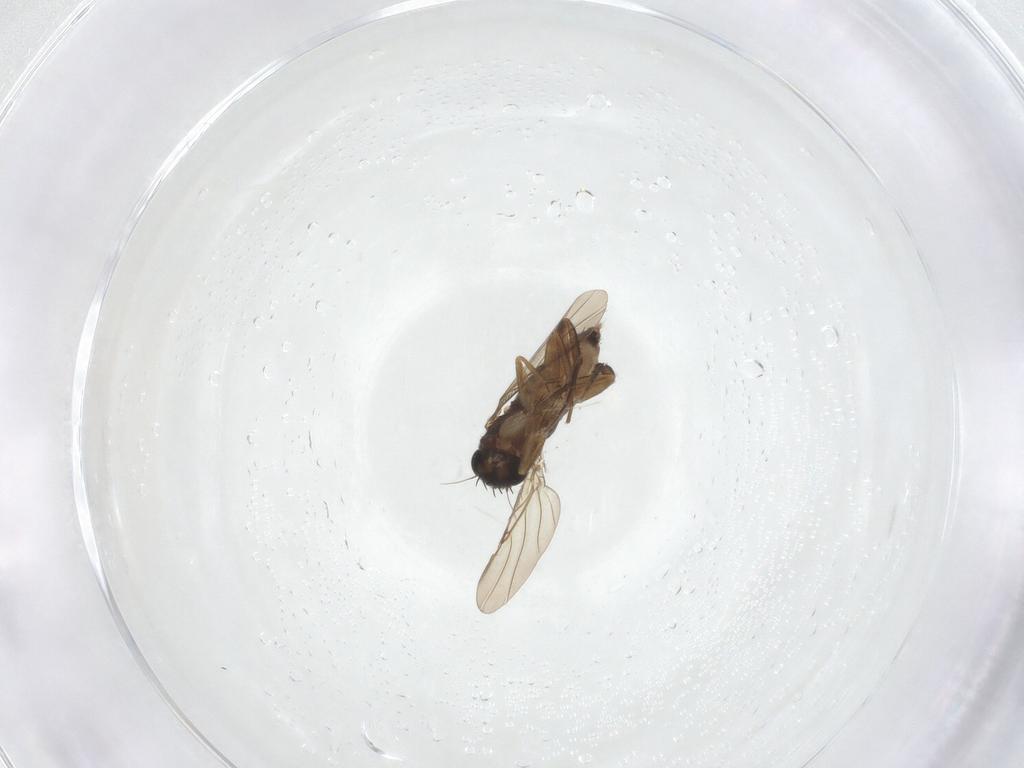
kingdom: Animalia
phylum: Arthropoda
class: Insecta
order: Diptera
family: Phoridae
